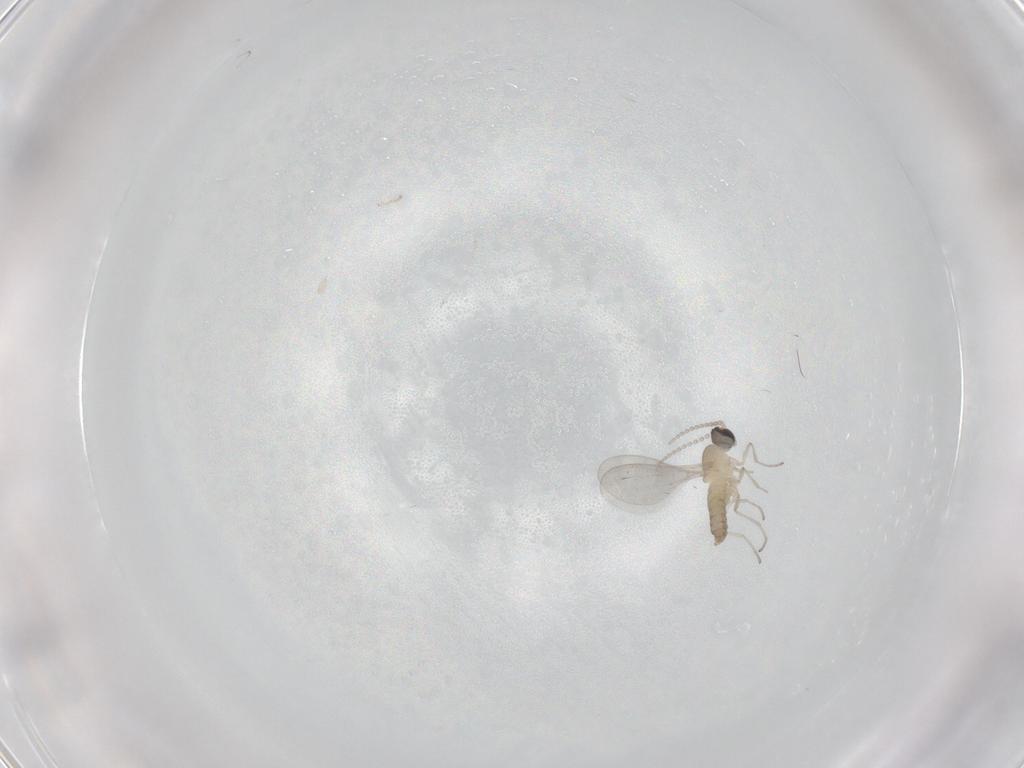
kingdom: Animalia
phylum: Arthropoda
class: Insecta
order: Diptera
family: Cecidomyiidae
